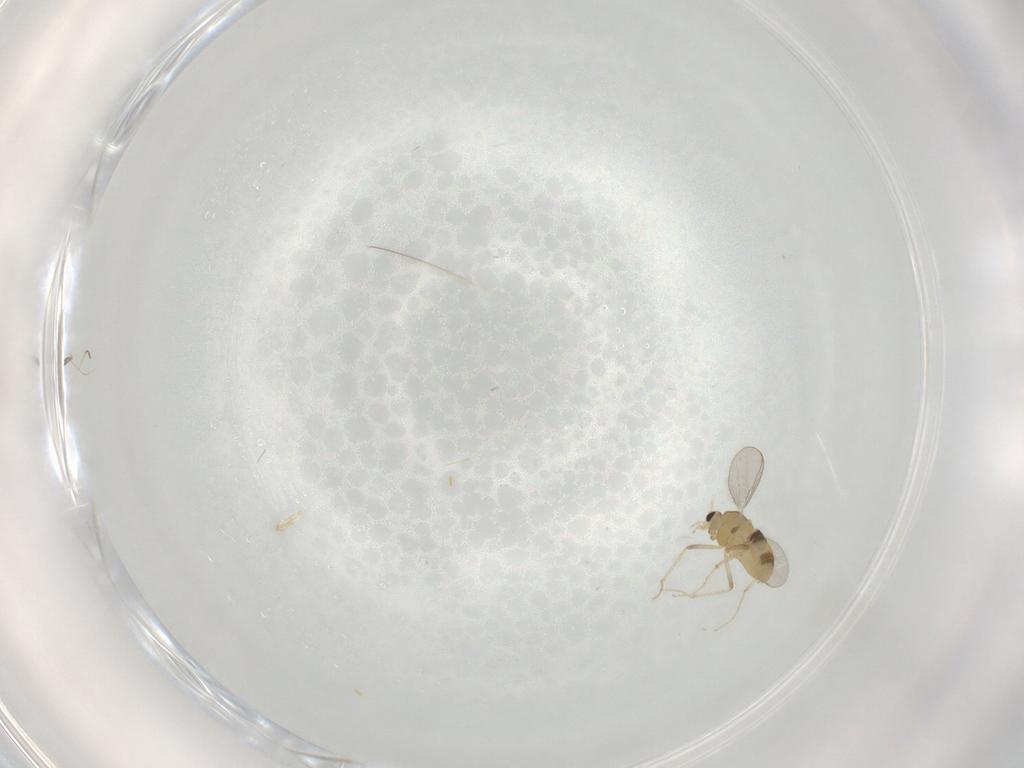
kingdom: Animalia
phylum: Arthropoda
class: Insecta
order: Diptera
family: Chironomidae
